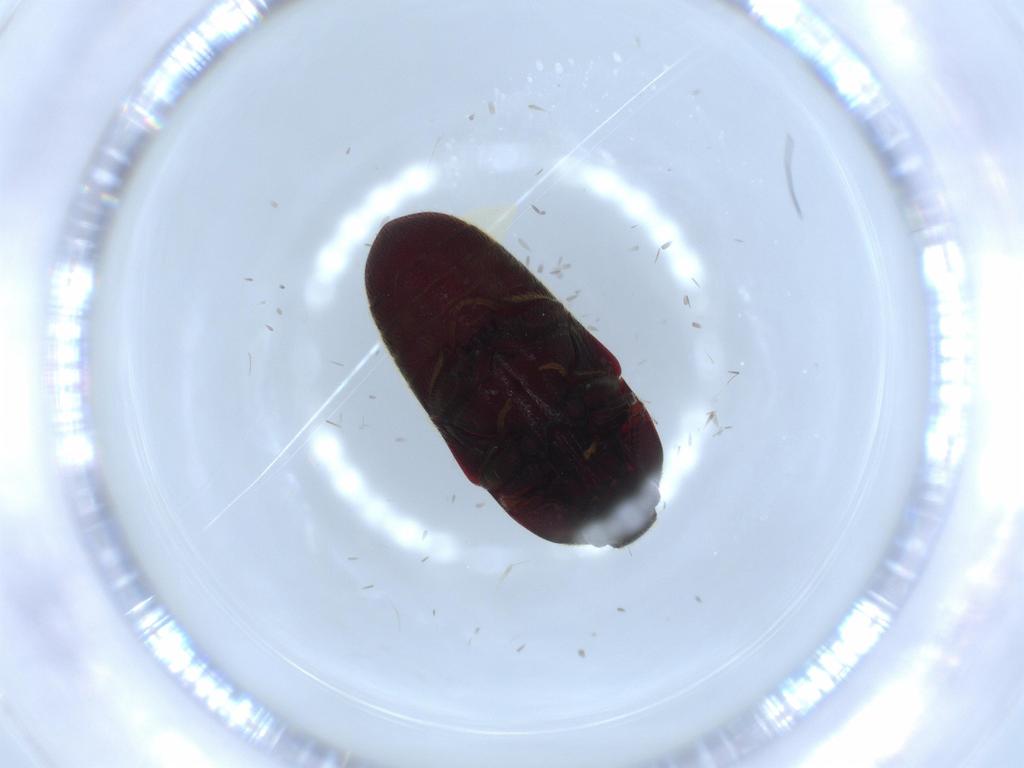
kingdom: Animalia
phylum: Arthropoda
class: Insecta
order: Coleoptera
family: Throscidae
